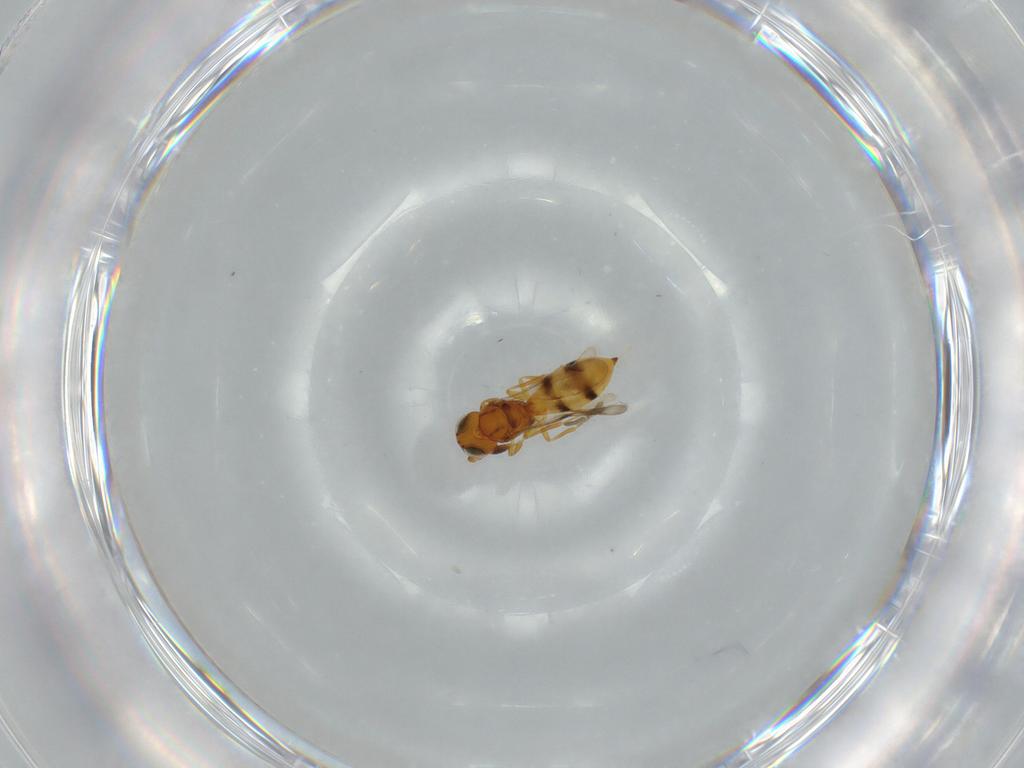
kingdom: Animalia
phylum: Arthropoda
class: Insecta
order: Hymenoptera
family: Scelionidae
